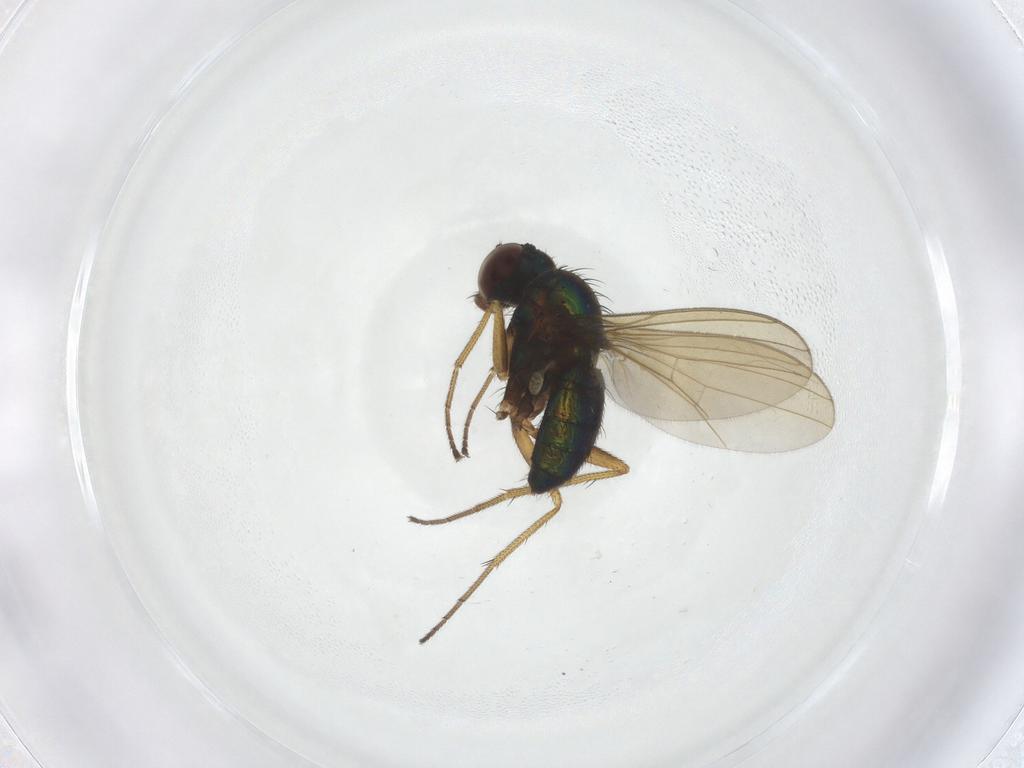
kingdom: Animalia
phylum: Arthropoda
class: Insecta
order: Diptera
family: Dolichopodidae
